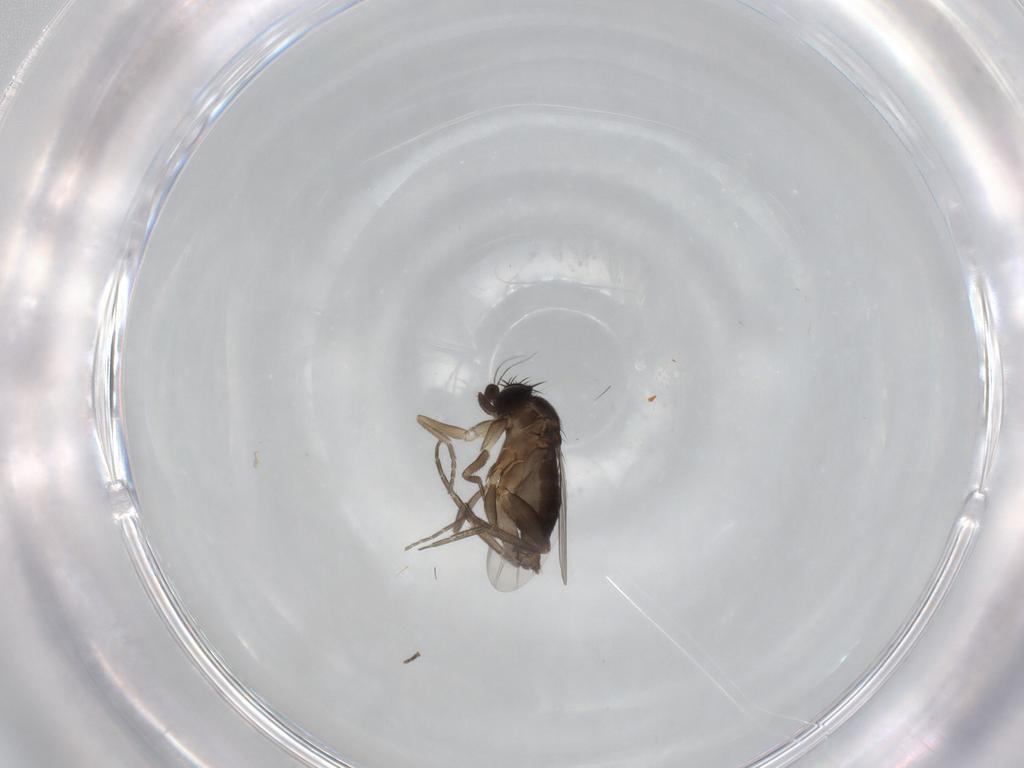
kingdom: Animalia
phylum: Arthropoda
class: Insecta
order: Diptera
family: Phoridae
